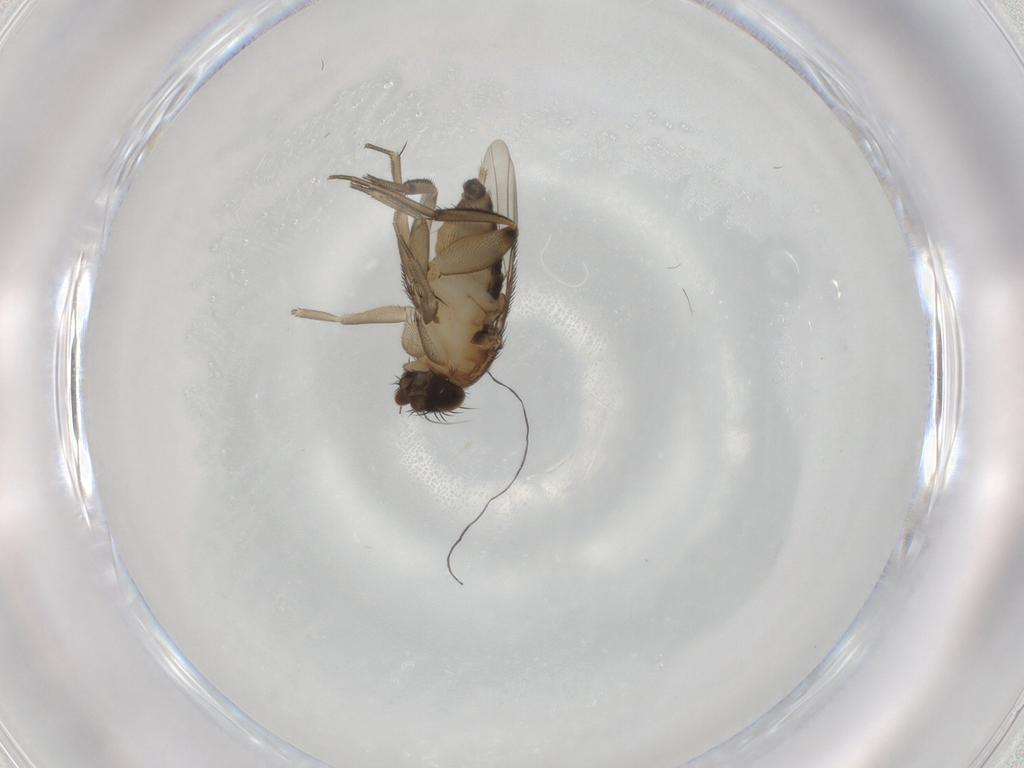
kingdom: Animalia
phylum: Arthropoda
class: Insecta
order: Diptera
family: Phoridae
